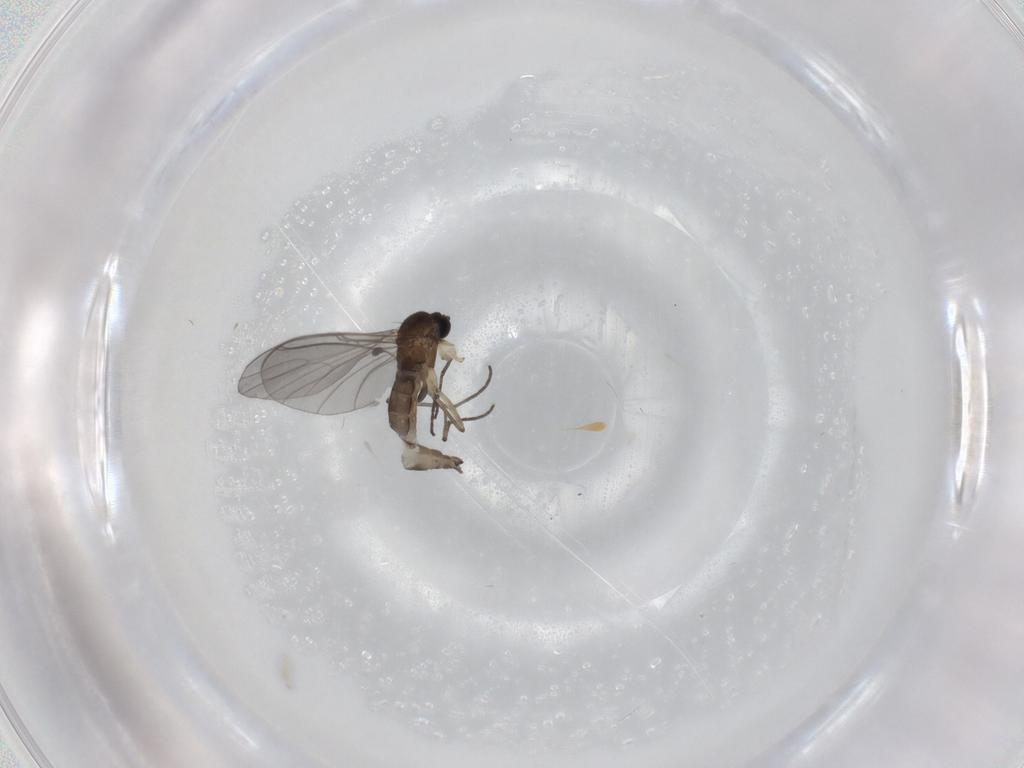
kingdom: Animalia
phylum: Arthropoda
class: Insecta
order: Diptera
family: Sciaridae
